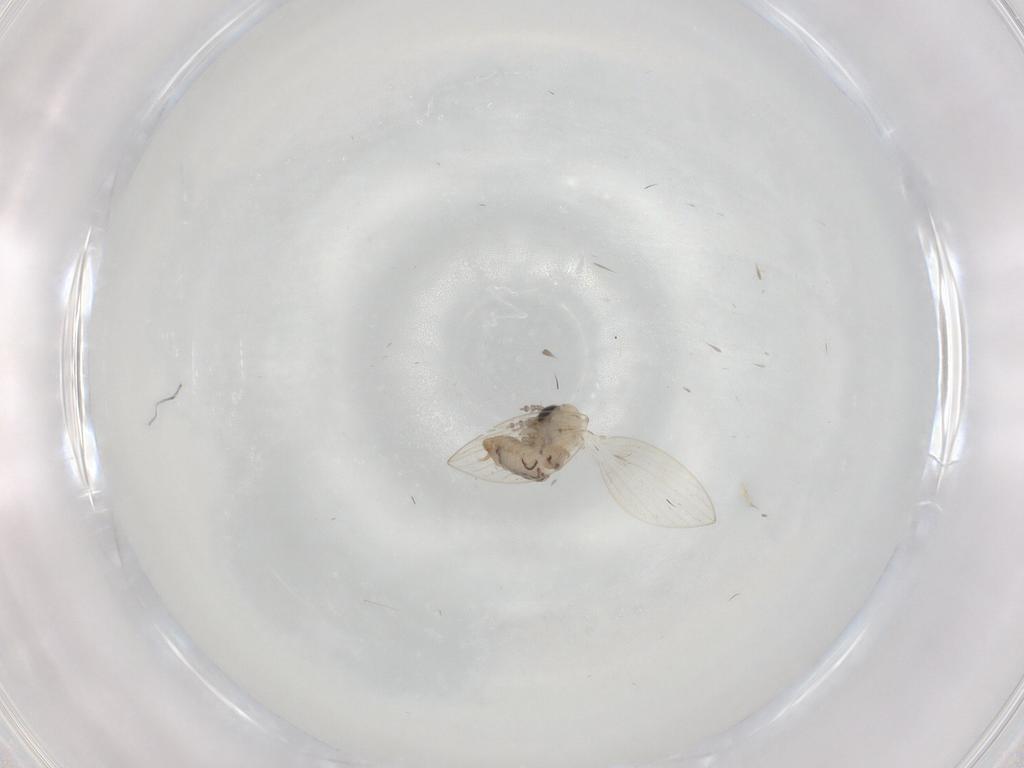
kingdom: Animalia
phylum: Arthropoda
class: Insecta
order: Diptera
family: Psychodidae
